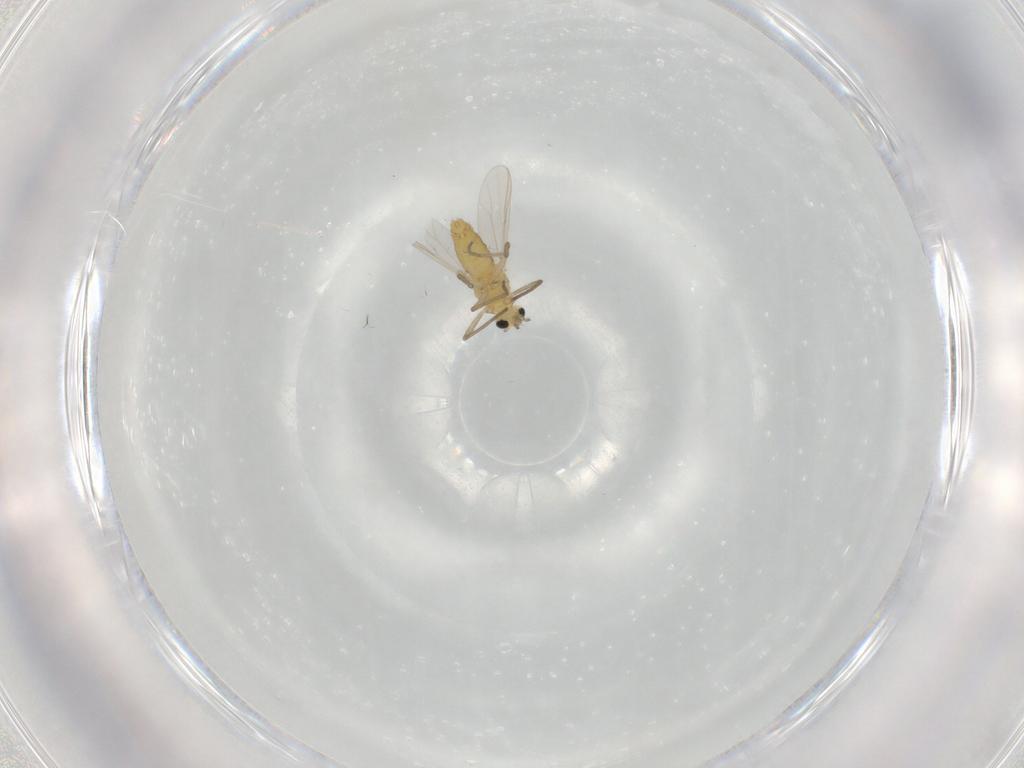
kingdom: Animalia
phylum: Arthropoda
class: Insecta
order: Diptera
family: Chironomidae
